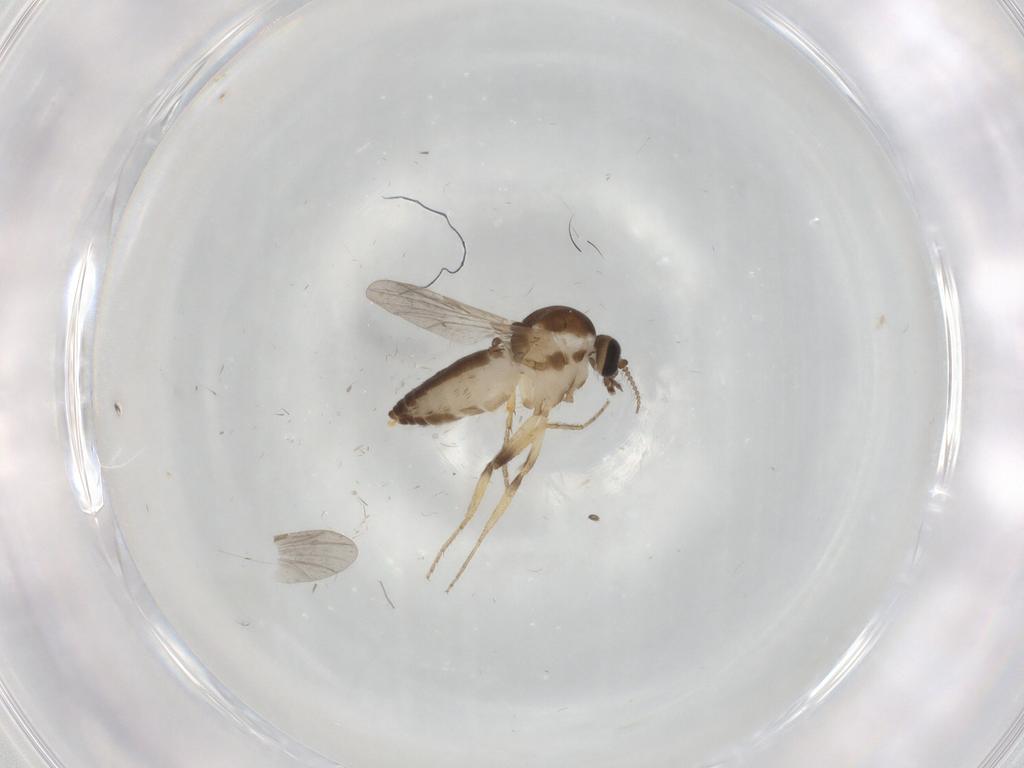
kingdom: Animalia
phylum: Arthropoda
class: Insecta
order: Diptera
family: Ceratopogonidae
